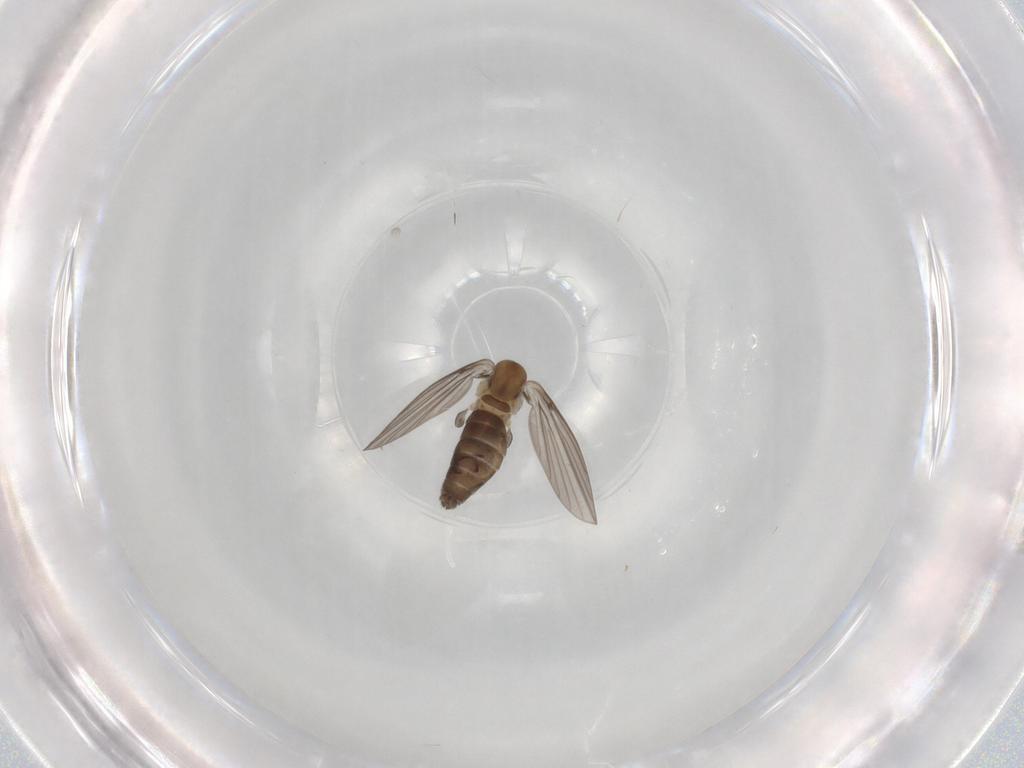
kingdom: Animalia
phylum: Arthropoda
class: Insecta
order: Diptera
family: Psychodidae
